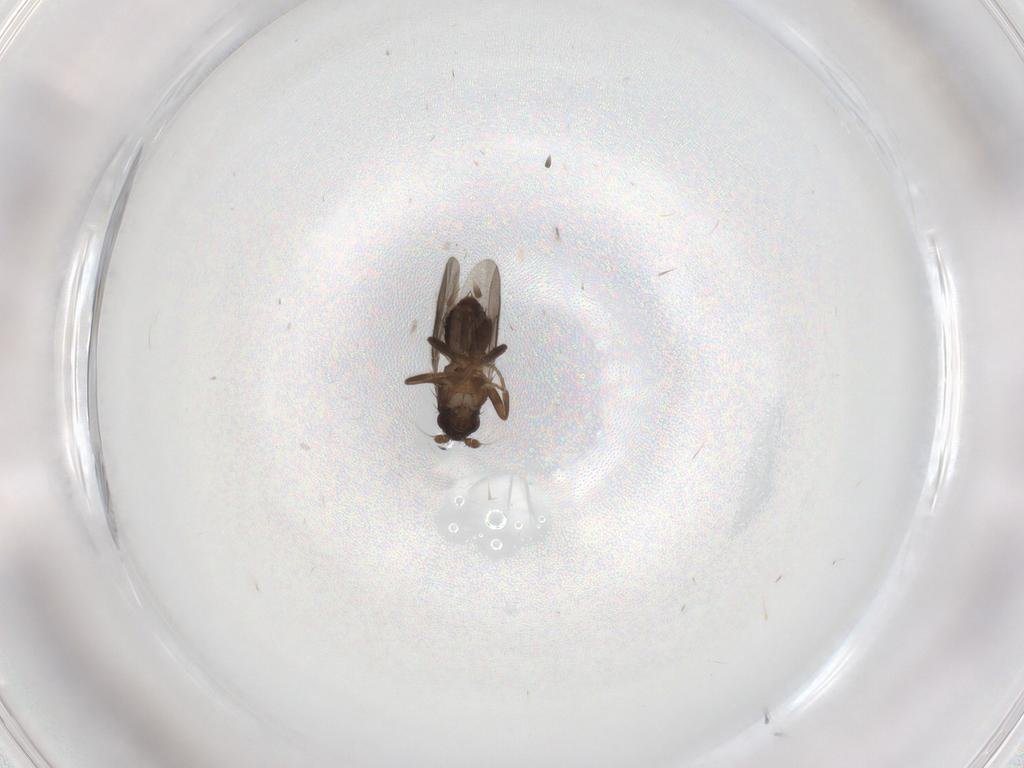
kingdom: Animalia
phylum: Arthropoda
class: Insecta
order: Diptera
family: Sphaeroceridae
